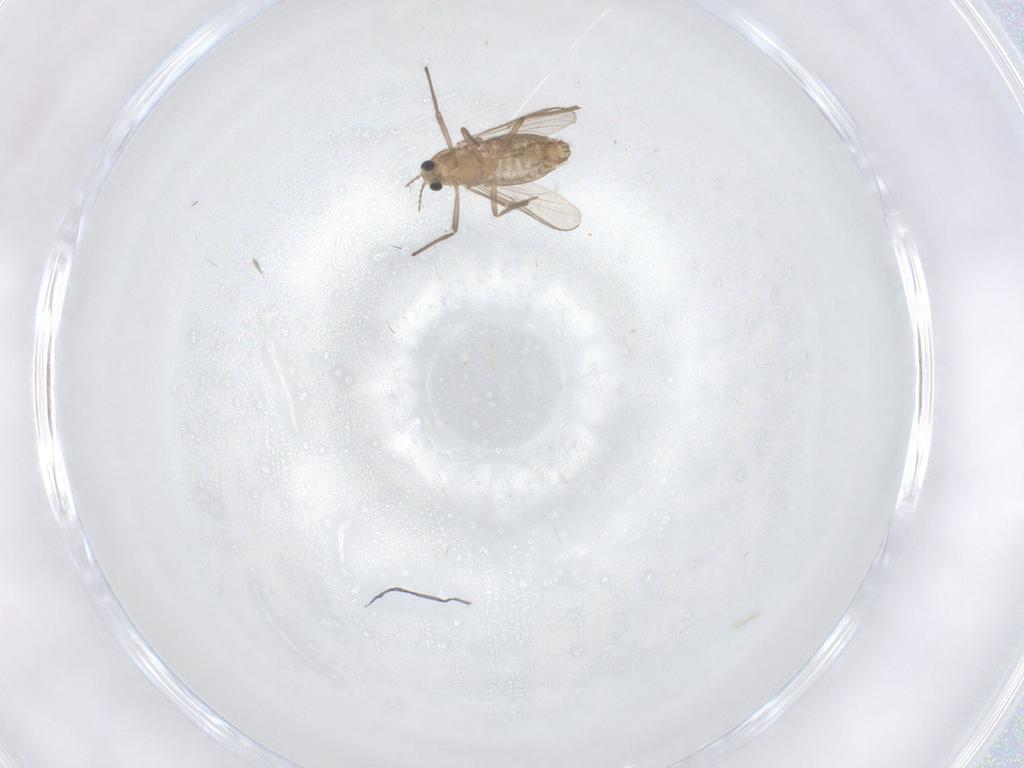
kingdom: Animalia
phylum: Arthropoda
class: Insecta
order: Diptera
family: Chironomidae
